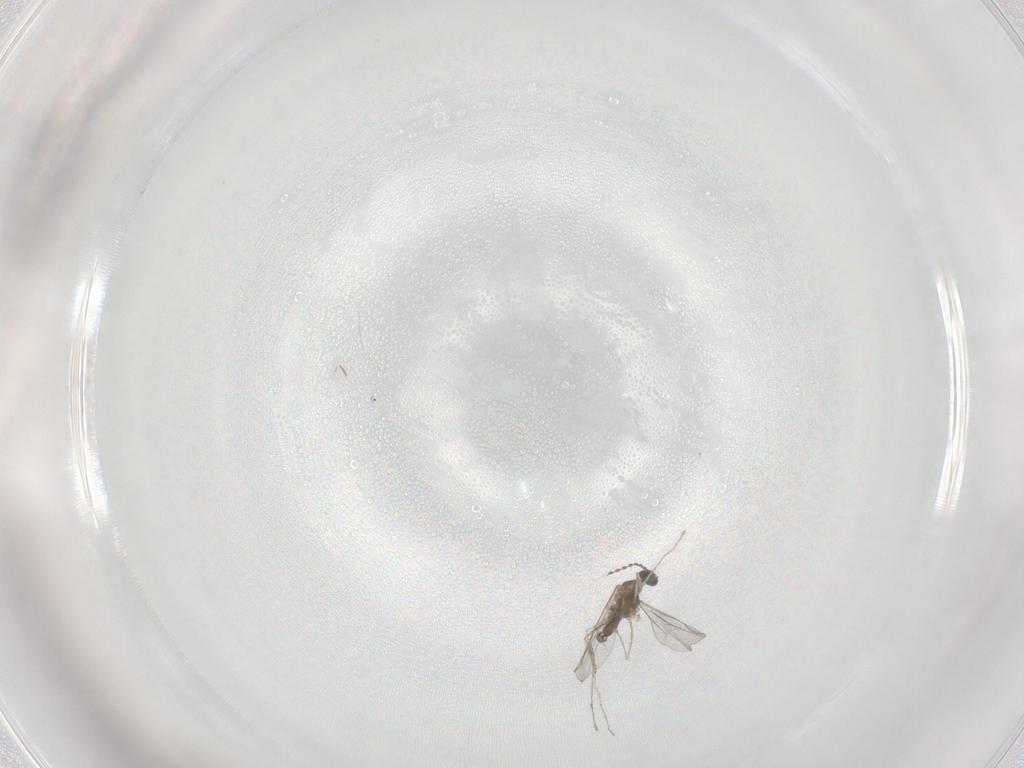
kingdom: Animalia
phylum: Arthropoda
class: Insecta
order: Diptera
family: Cecidomyiidae
